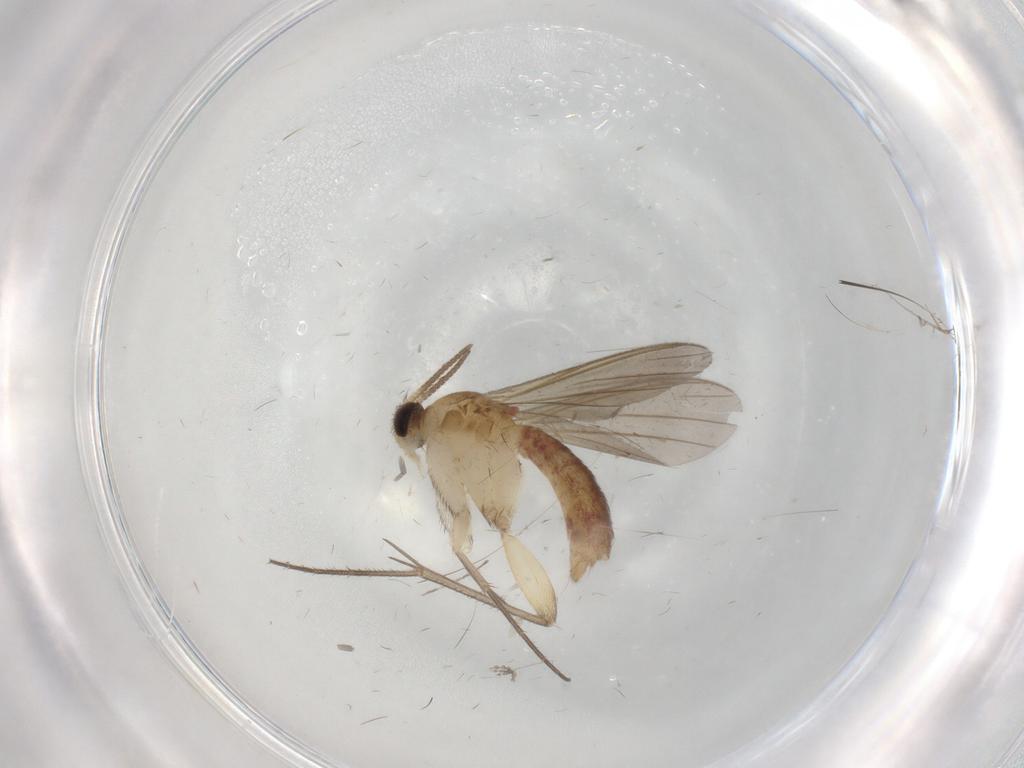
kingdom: Animalia
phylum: Arthropoda
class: Insecta
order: Diptera
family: Mycetophilidae
